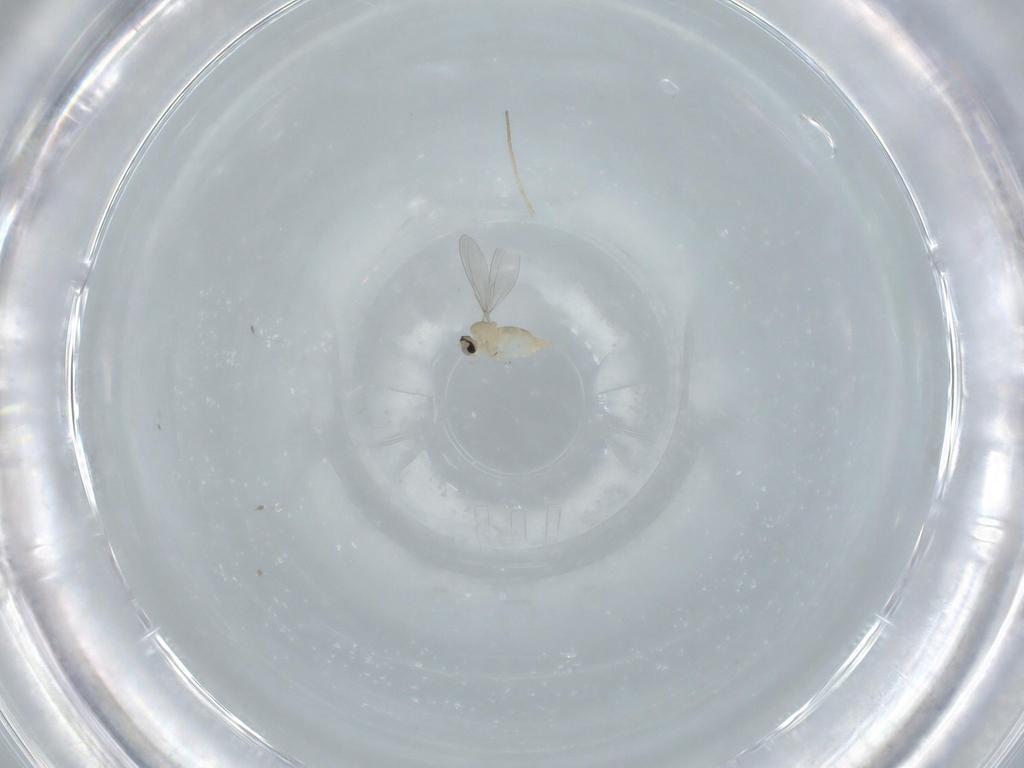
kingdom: Animalia
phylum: Arthropoda
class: Insecta
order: Diptera
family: Cecidomyiidae
